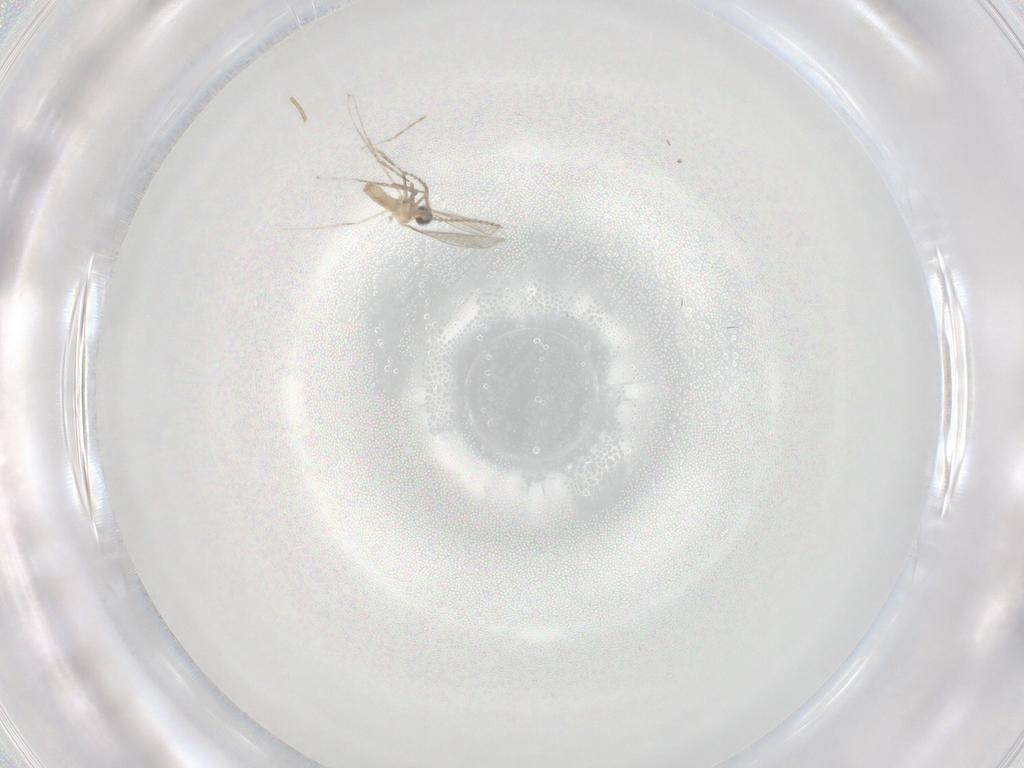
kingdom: Animalia
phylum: Arthropoda
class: Insecta
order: Diptera
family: Cecidomyiidae
